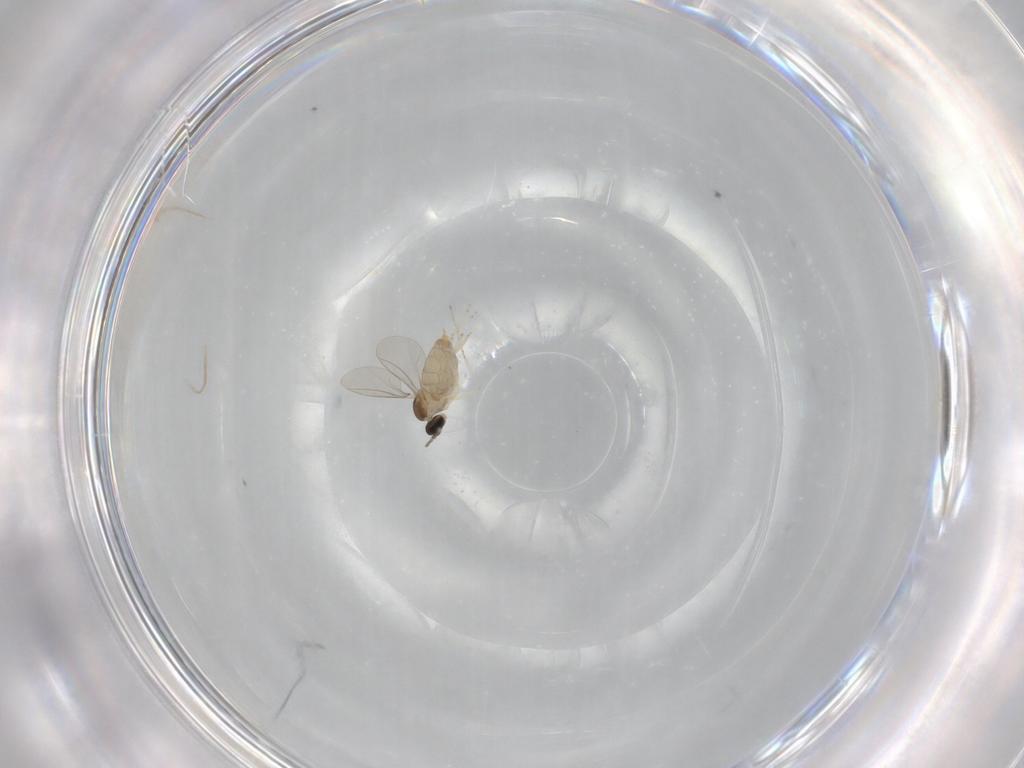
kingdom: Animalia
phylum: Arthropoda
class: Insecta
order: Diptera
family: Cecidomyiidae
